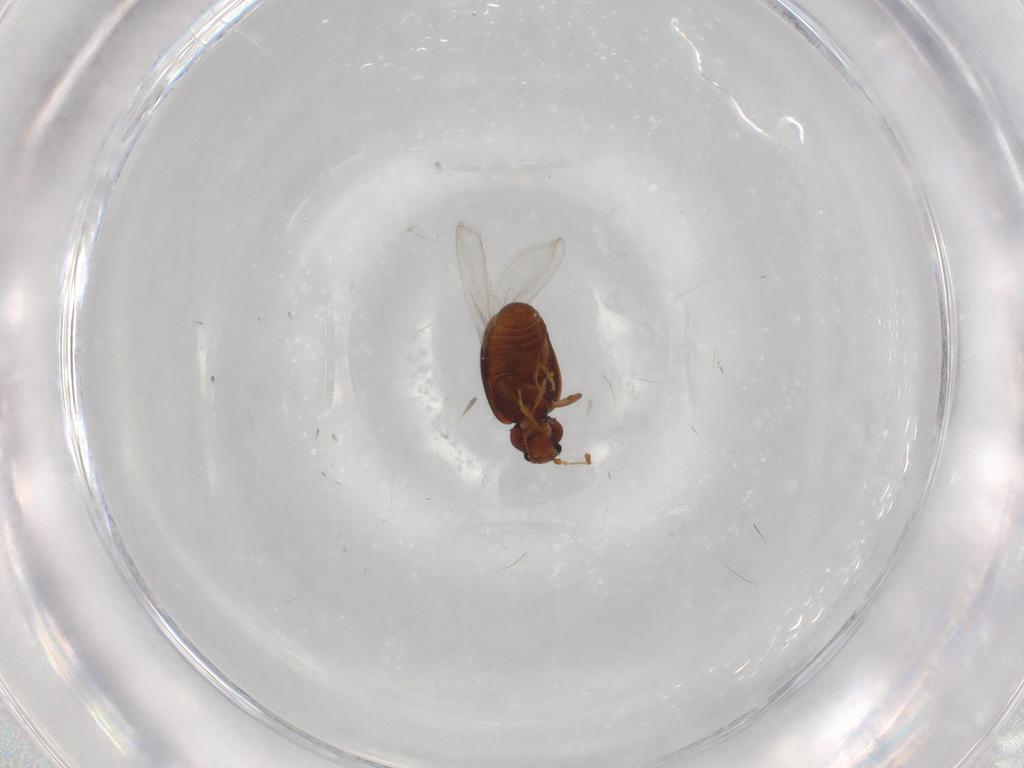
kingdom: Animalia
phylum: Arthropoda
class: Insecta
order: Coleoptera
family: Latridiidae
